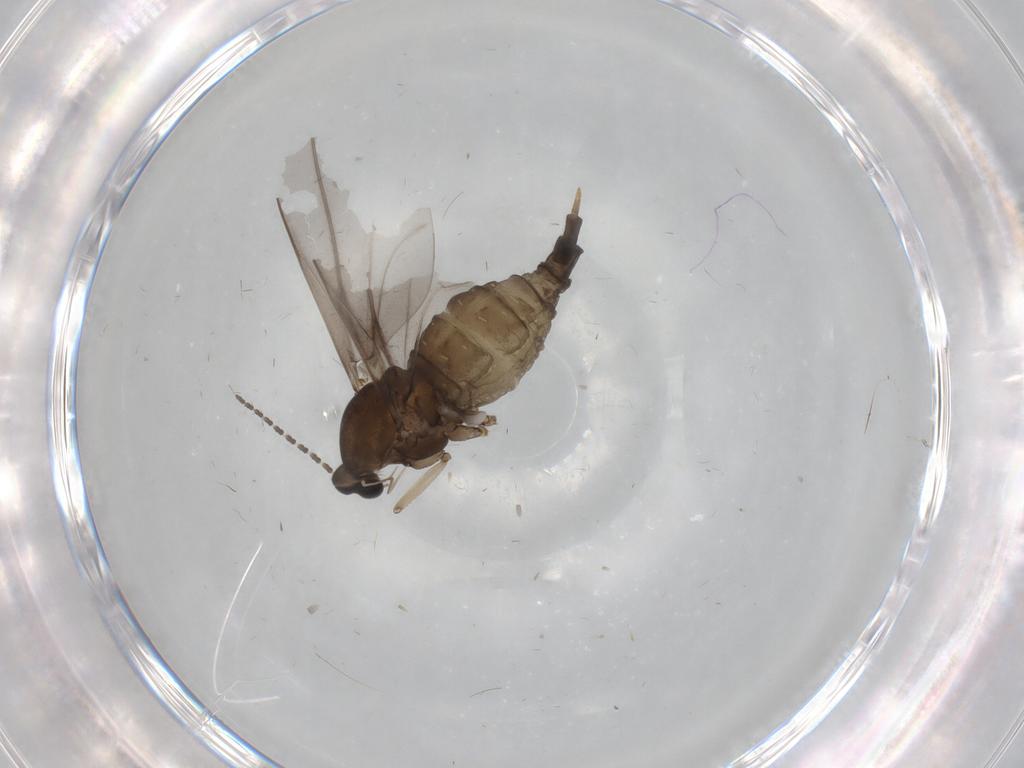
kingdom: Animalia
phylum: Arthropoda
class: Insecta
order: Diptera
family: Cecidomyiidae
